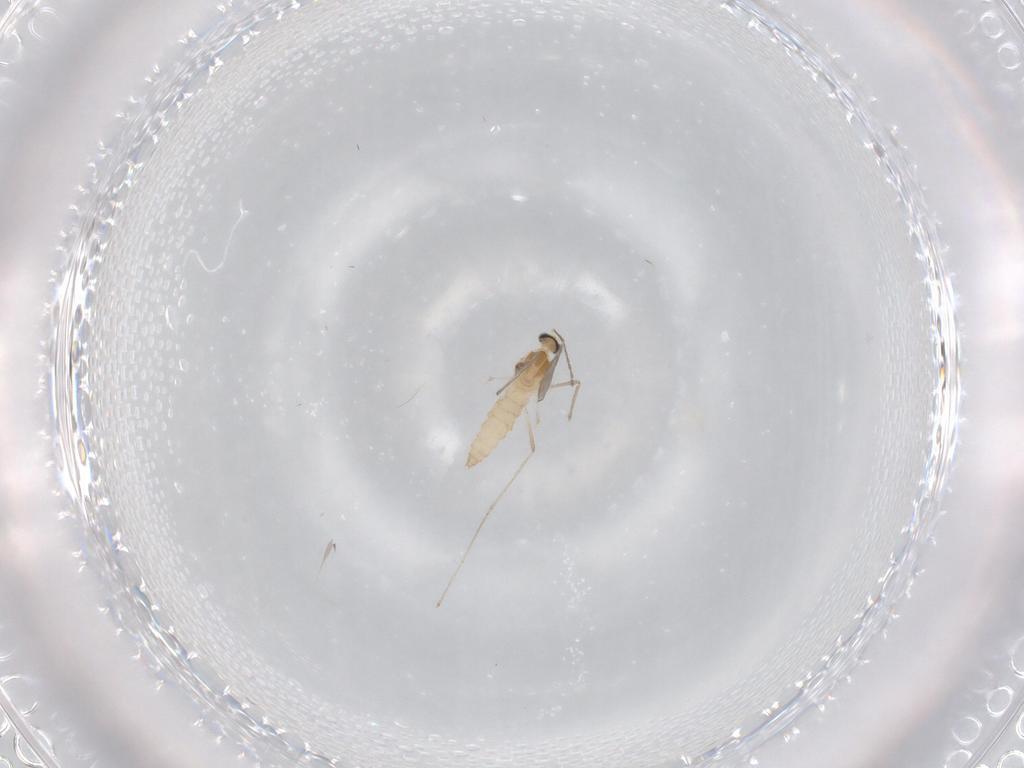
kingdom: Animalia
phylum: Arthropoda
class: Insecta
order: Diptera
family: Cecidomyiidae
